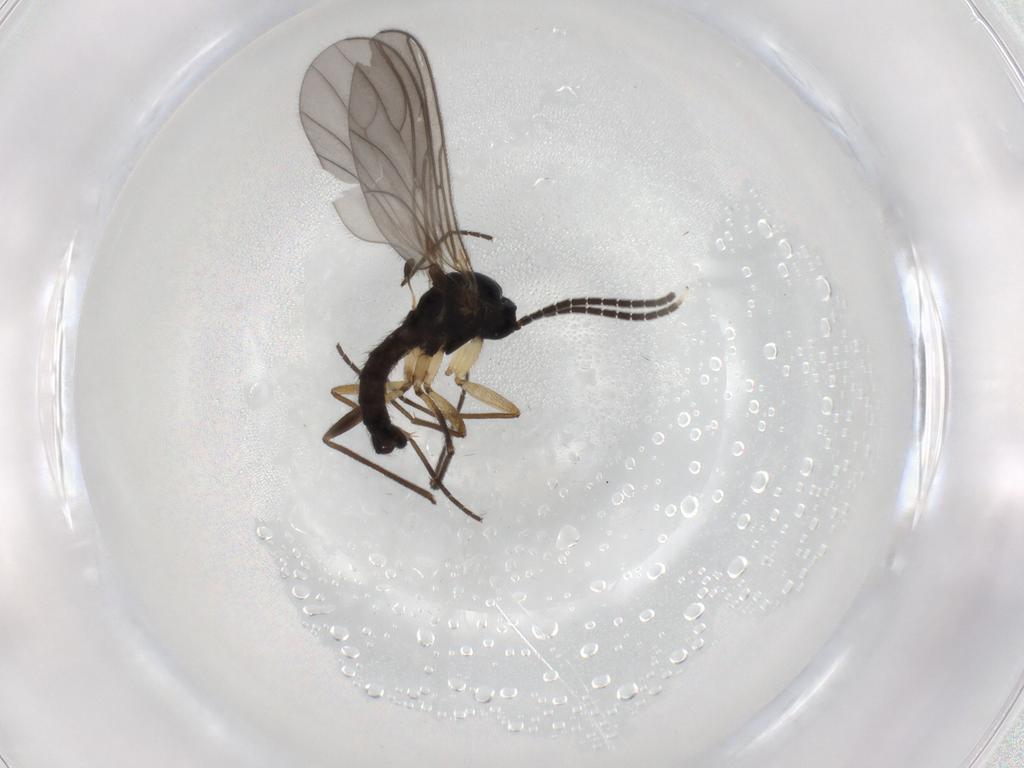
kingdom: Animalia
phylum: Arthropoda
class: Insecta
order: Diptera
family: Sciaridae
